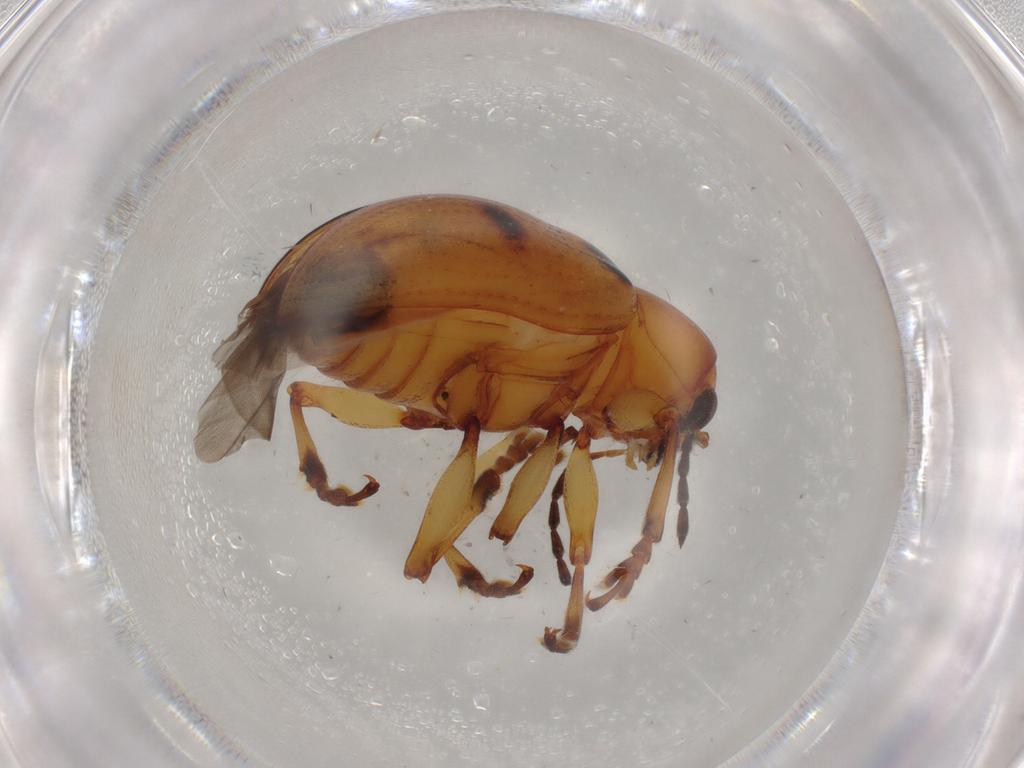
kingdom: Animalia
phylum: Arthropoda
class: Insecta
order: Coleoptera
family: Chrysomelidae
